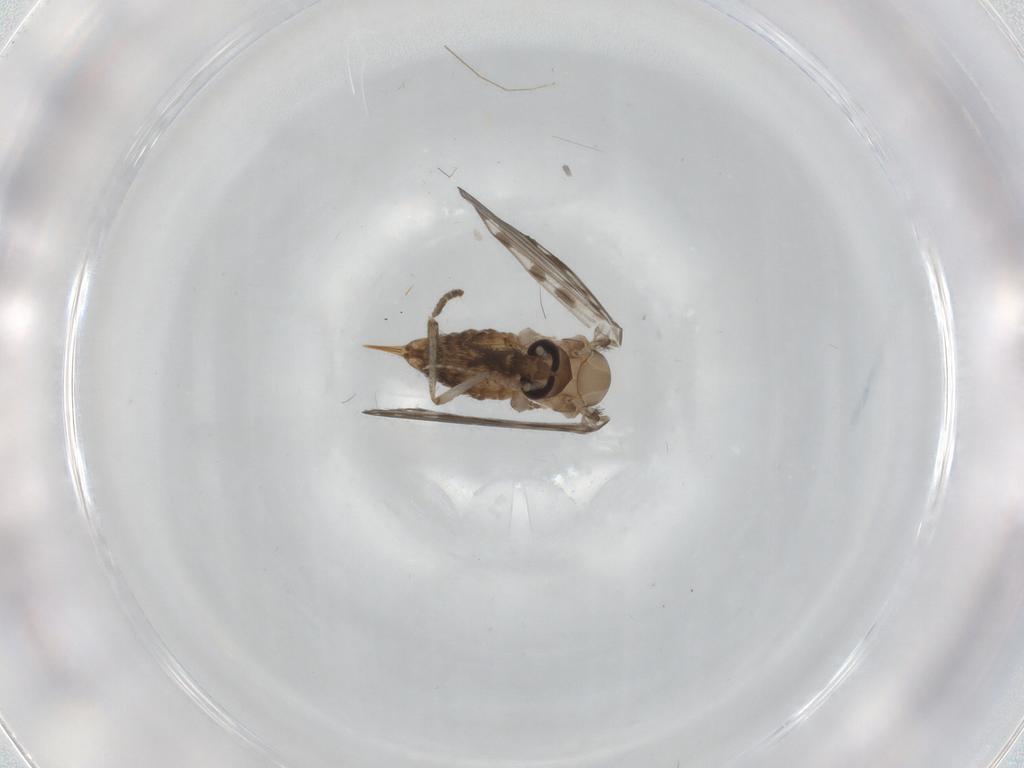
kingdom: Animalia
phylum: Arthropoda
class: Insecta
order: Diptera
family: Psychodidae
